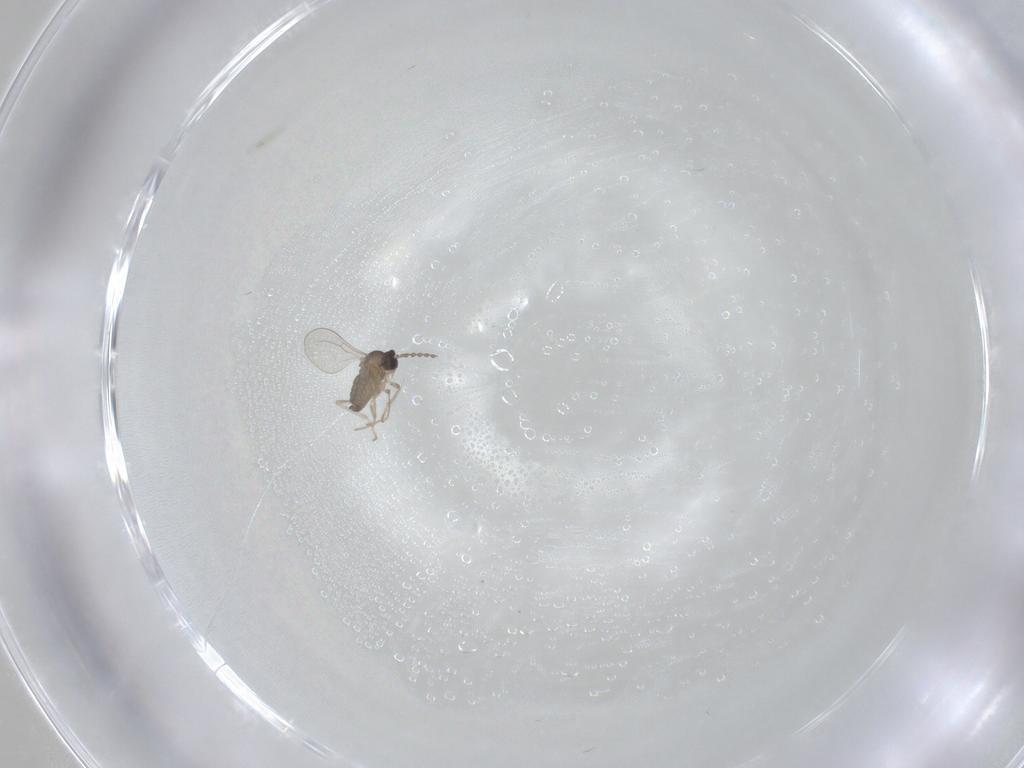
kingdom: Animalia
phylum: Arthropoda
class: Insecta
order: Diptera
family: Cecidomyiidae
